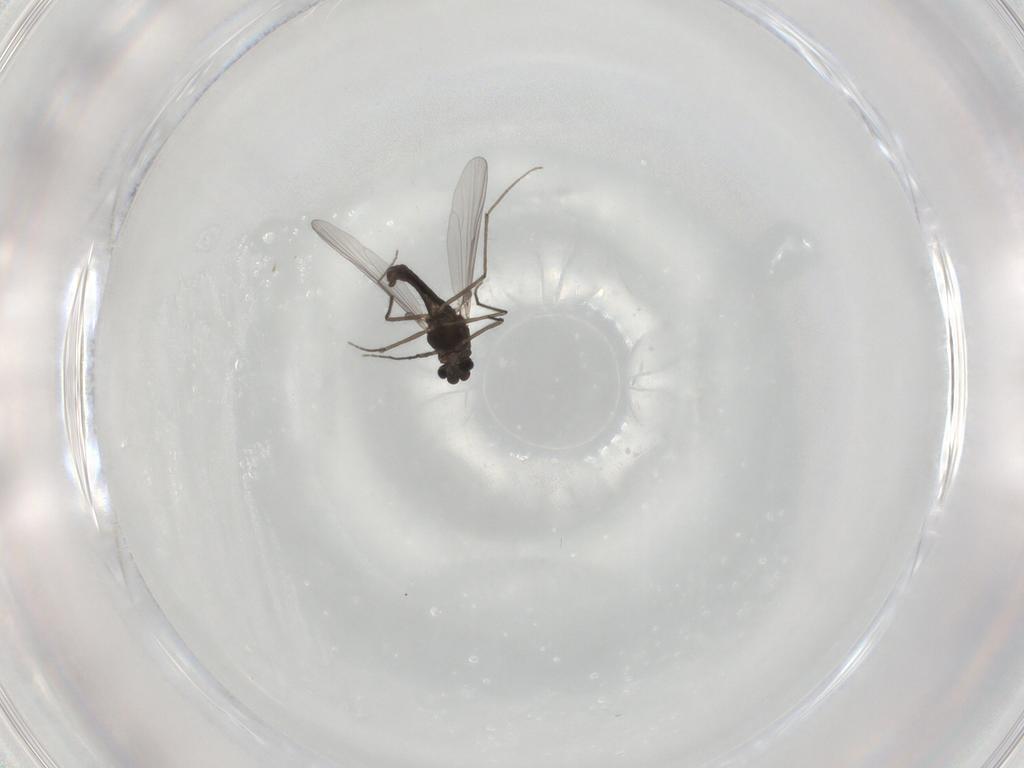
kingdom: Animalia
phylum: Arthropoda
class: Insecta
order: Diptera
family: Chironomidae
